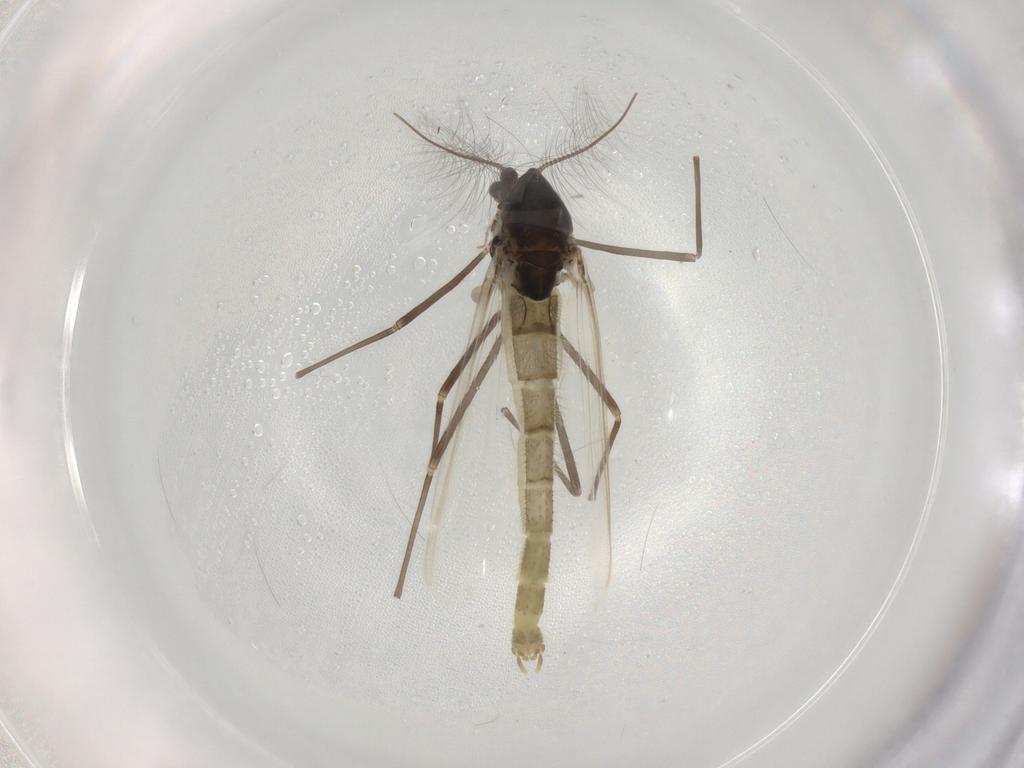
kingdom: Animalia
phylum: Arthropoda
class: Insecta
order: Diptera
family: Chironomidae
